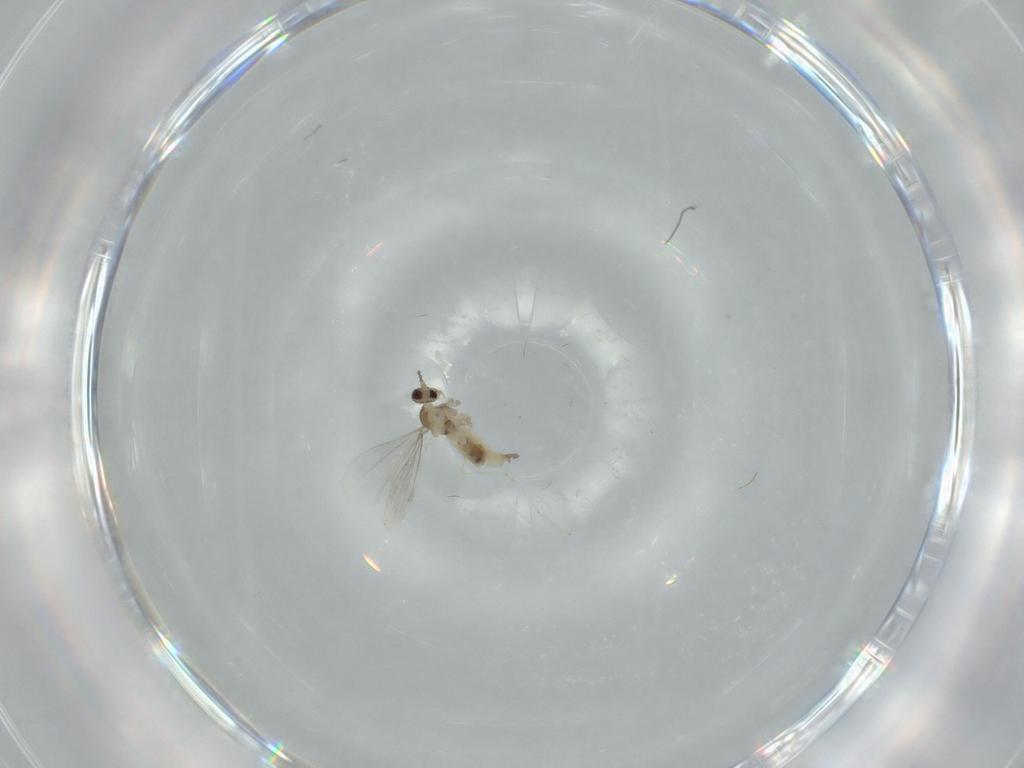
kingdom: Animalia
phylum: Arthropoda
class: Insecta
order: Diptera
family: Cecidomyiidae
